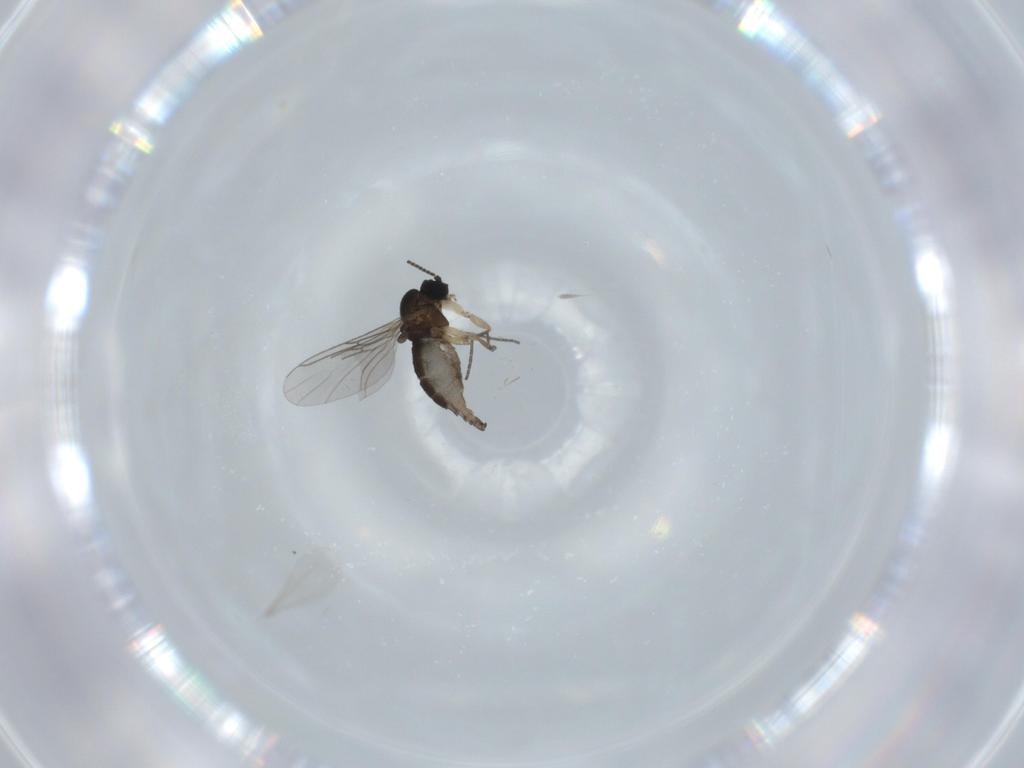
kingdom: Animalia
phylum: Arthropoda
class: Insecta
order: Diptera
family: Sciaridae
